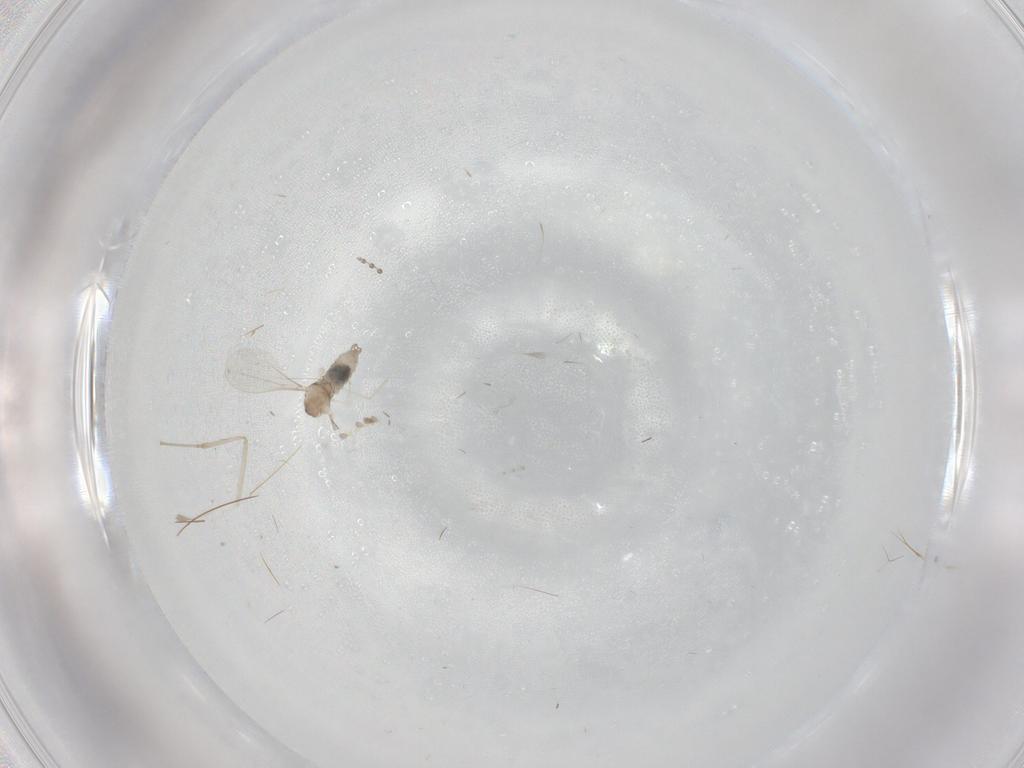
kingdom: Animalia
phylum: Arthropoda
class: Insecta
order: Diptera
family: Cecidomyiidae
